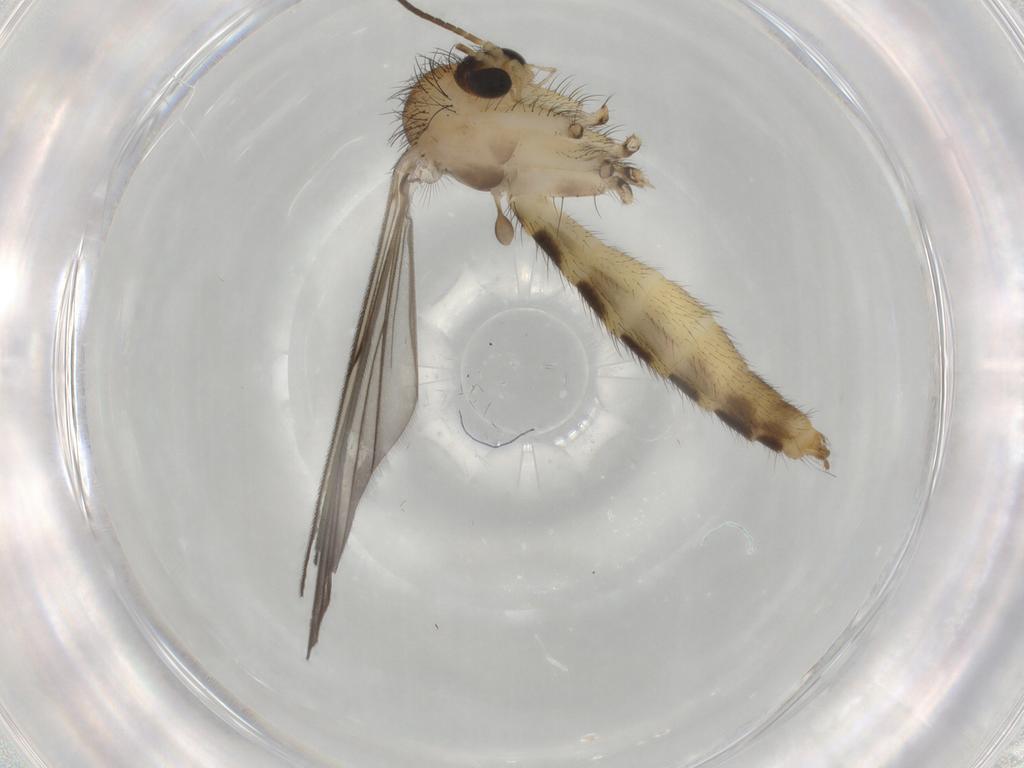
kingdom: Animalia
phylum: Arthropoda
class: Insecta
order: Diptera
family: Mycetophilidae
